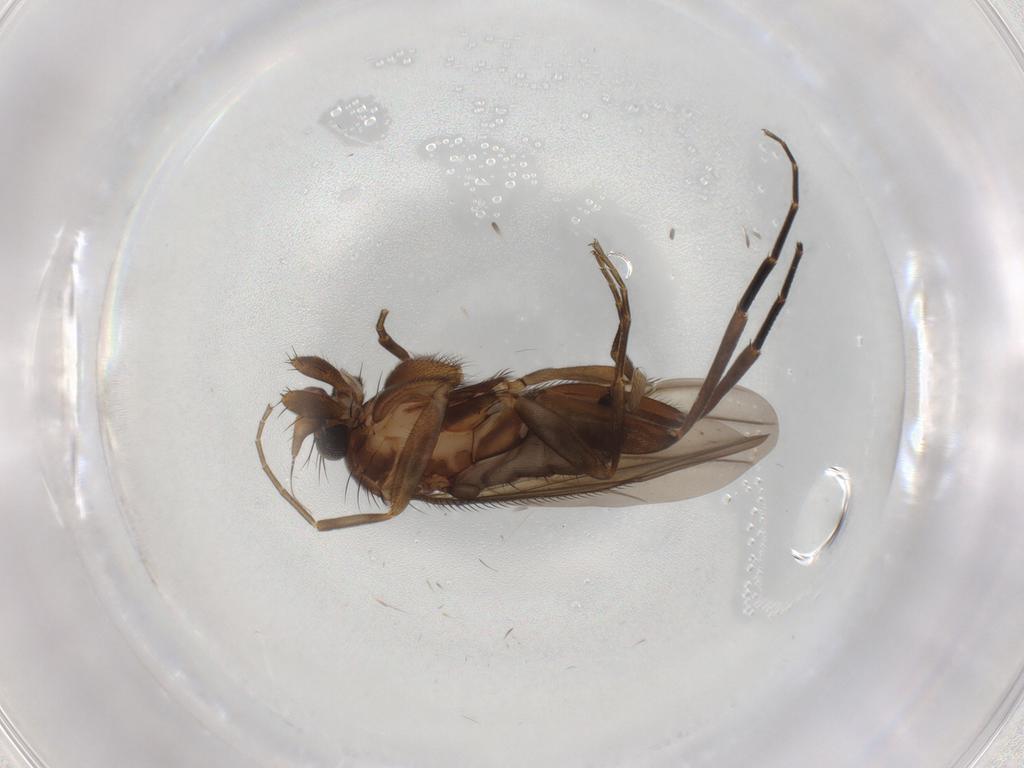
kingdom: Animalia
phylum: Arthropoda
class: Insecta
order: Diptera
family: Phoridae
